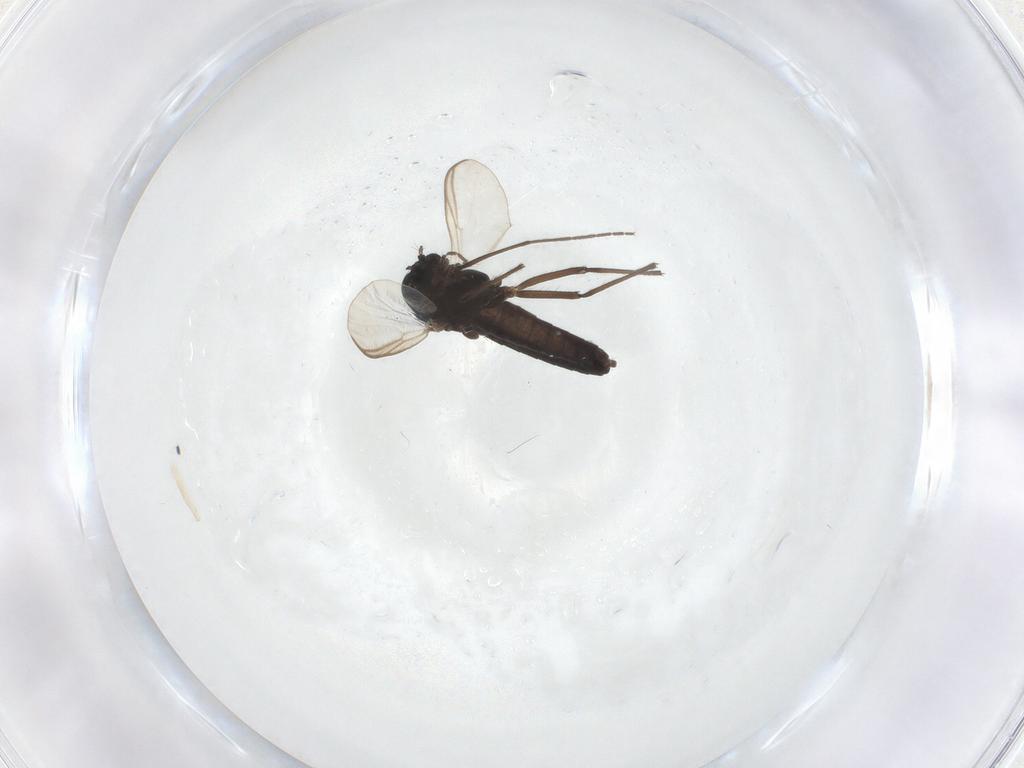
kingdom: Animalia
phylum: Arthropoda
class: Insecta
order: Diptera
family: Chironomidae
